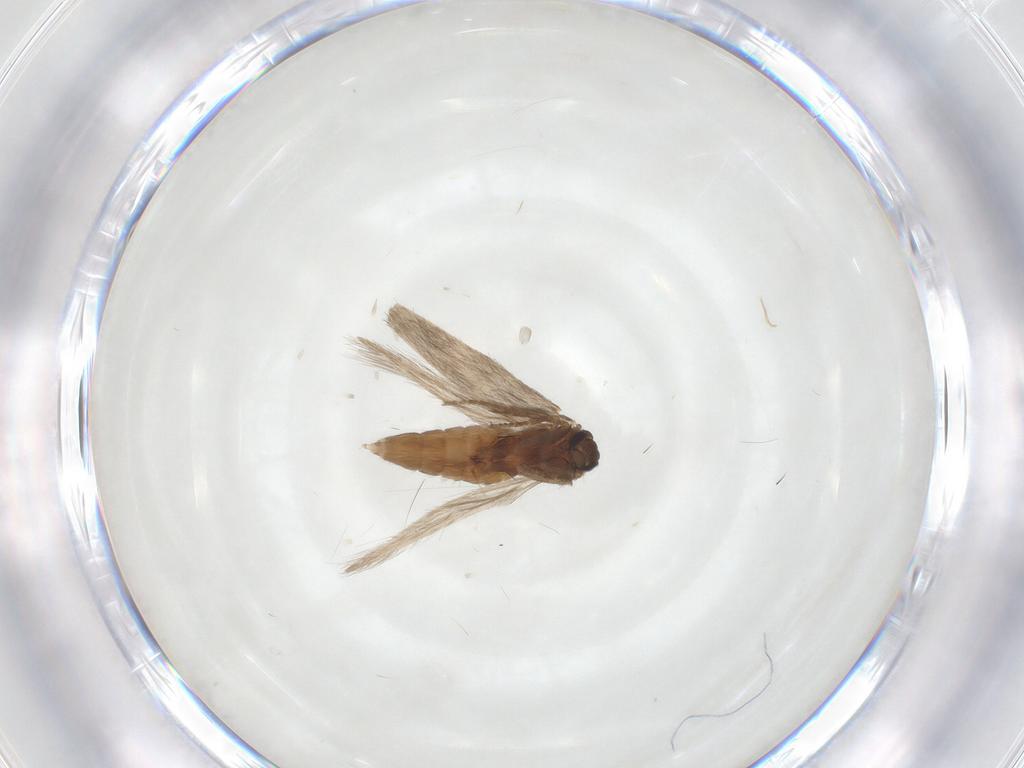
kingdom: Animalia
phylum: Arthropoda
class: Insecta
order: Trichoptera
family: Hydroptilidae
